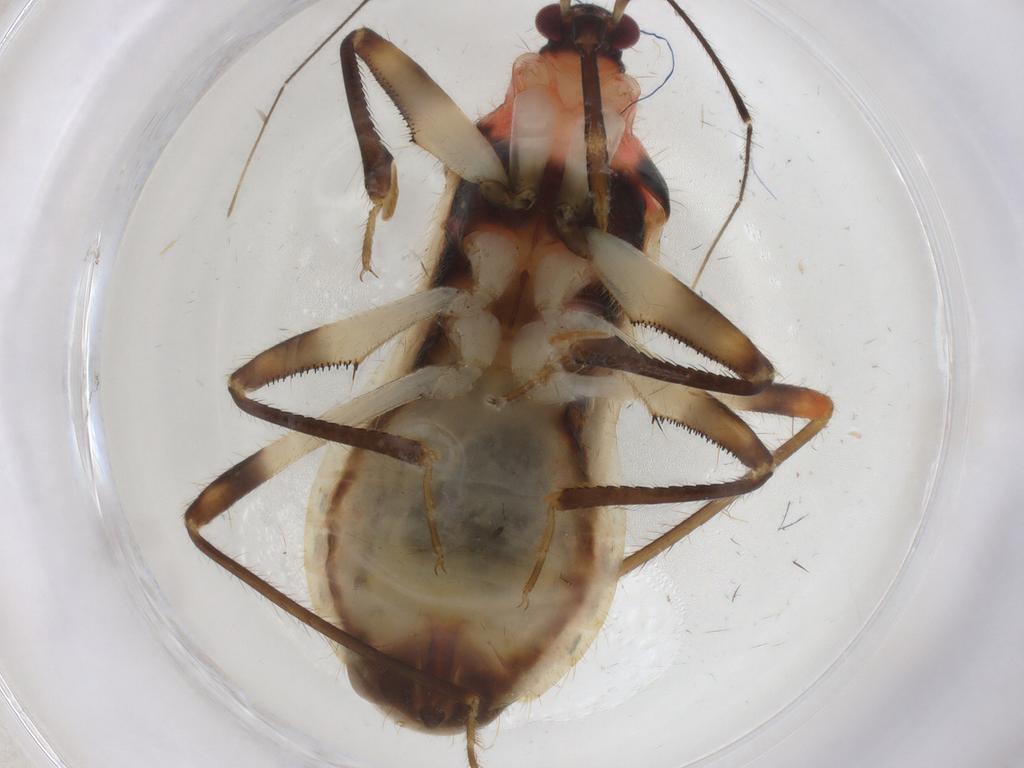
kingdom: Animalia
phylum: Arthropoda
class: Insecta
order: Hemiptera
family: Nabidae
